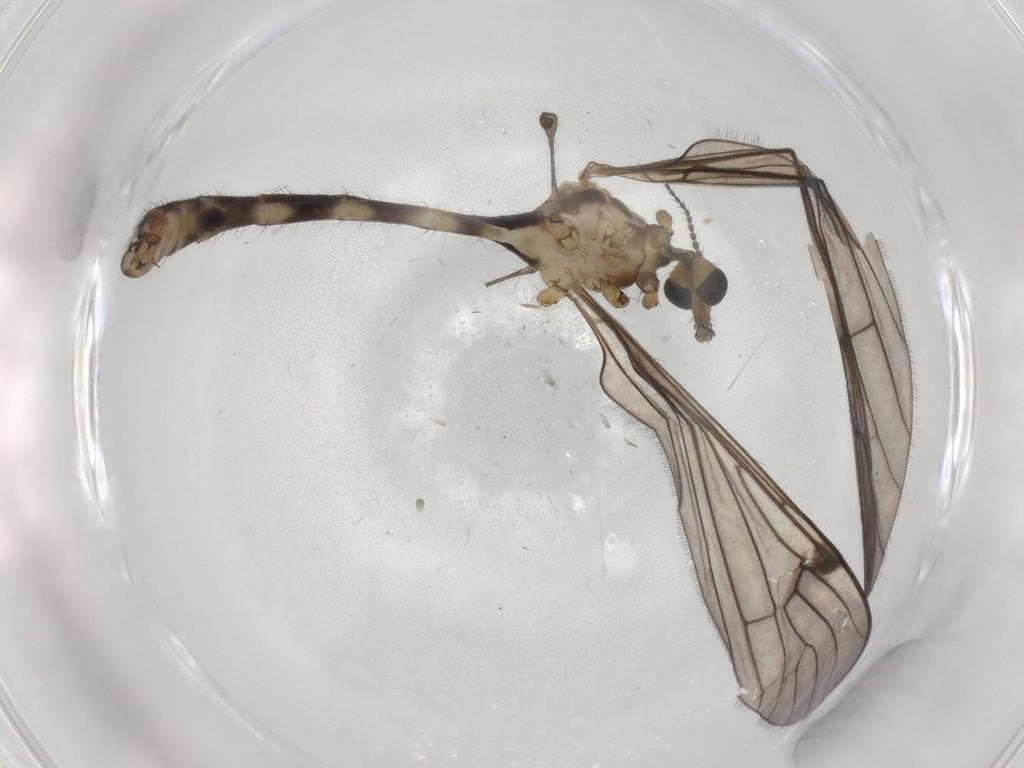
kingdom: Animalia
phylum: Arthropoda
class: Insecta
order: Diptera
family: Limoniidae
